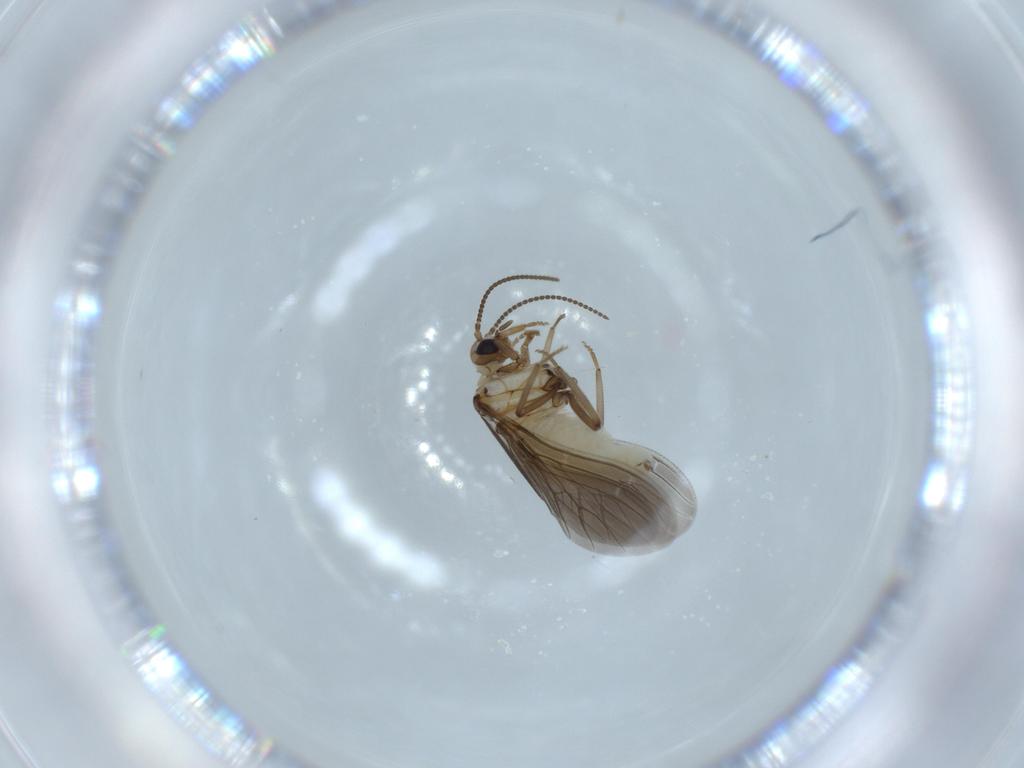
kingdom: Animalia
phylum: Arthropoda
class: Insecta
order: Neuroptera
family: Coniopterygidae
